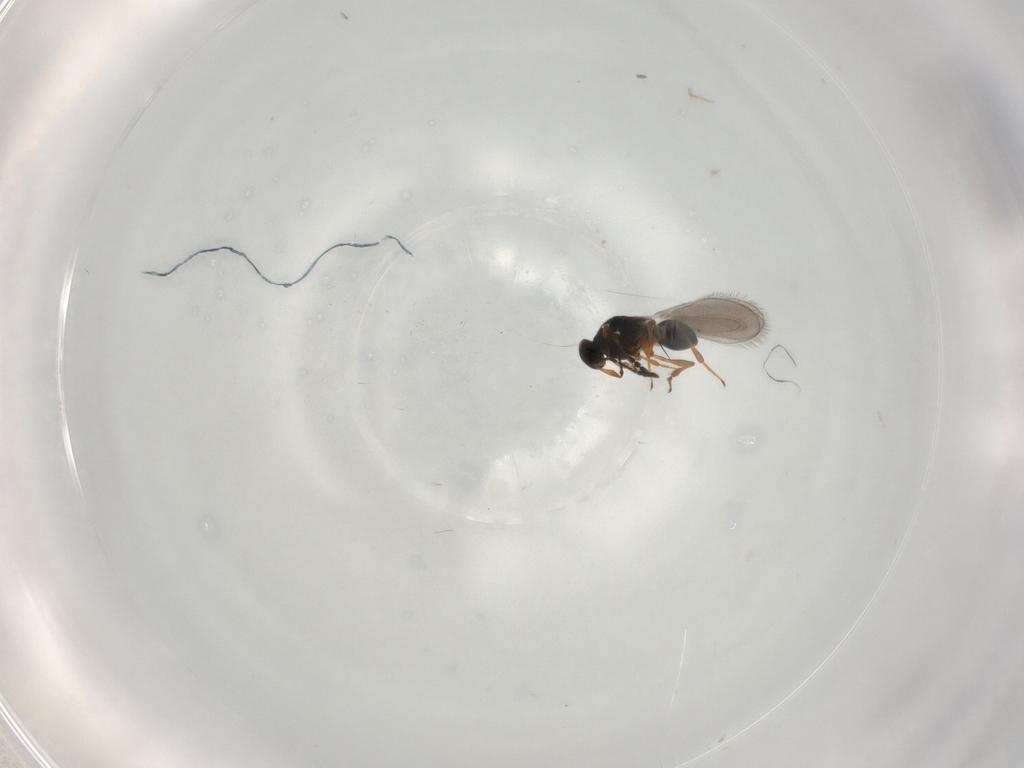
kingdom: Animalia
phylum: Arthropoda
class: Insecta
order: Hymenoptera
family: Platygastridae
